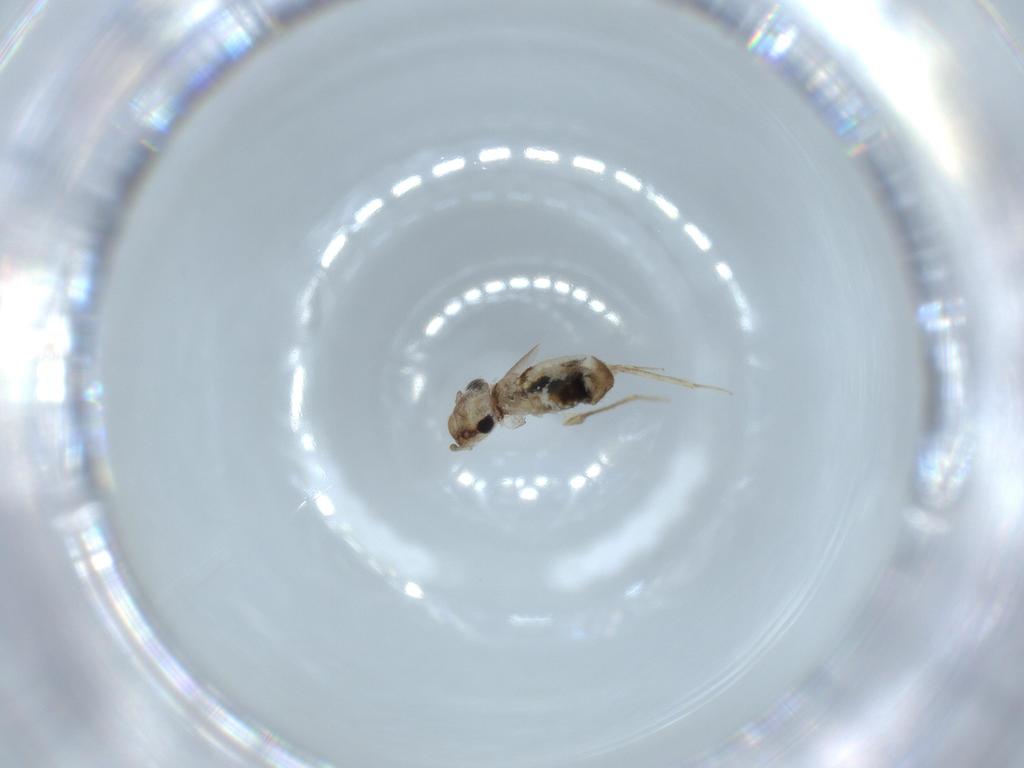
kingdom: Animalia
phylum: Arthropoda
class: Insecta
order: Psocodea
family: Lepidopsocidae
